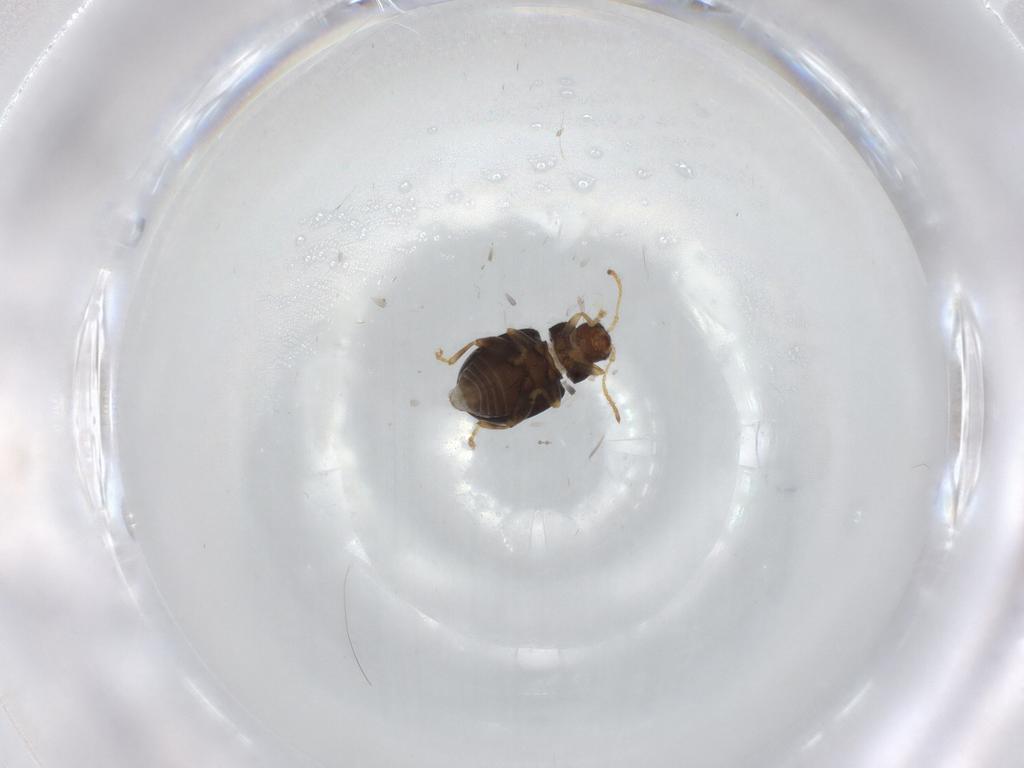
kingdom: Animalia
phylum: Arthropoda
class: Insecta
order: Coleoptera
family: Chrysomelidae
